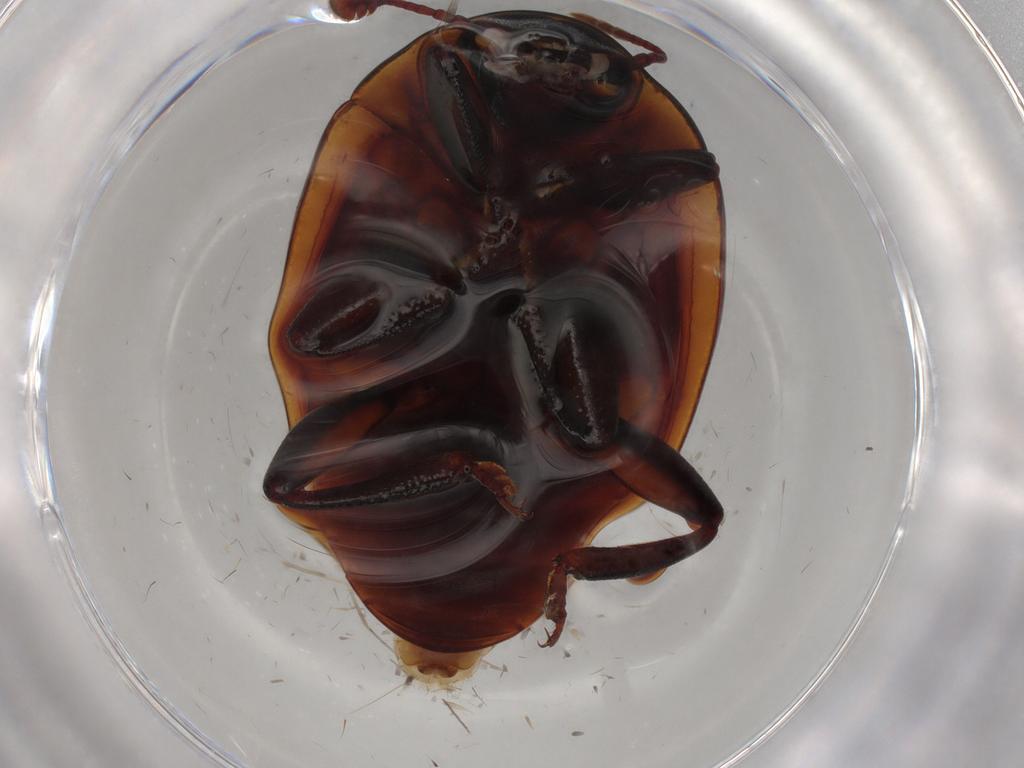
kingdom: Animalia
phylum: Arthropoda
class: Insecta
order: Coleoptera
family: Zopheridae
